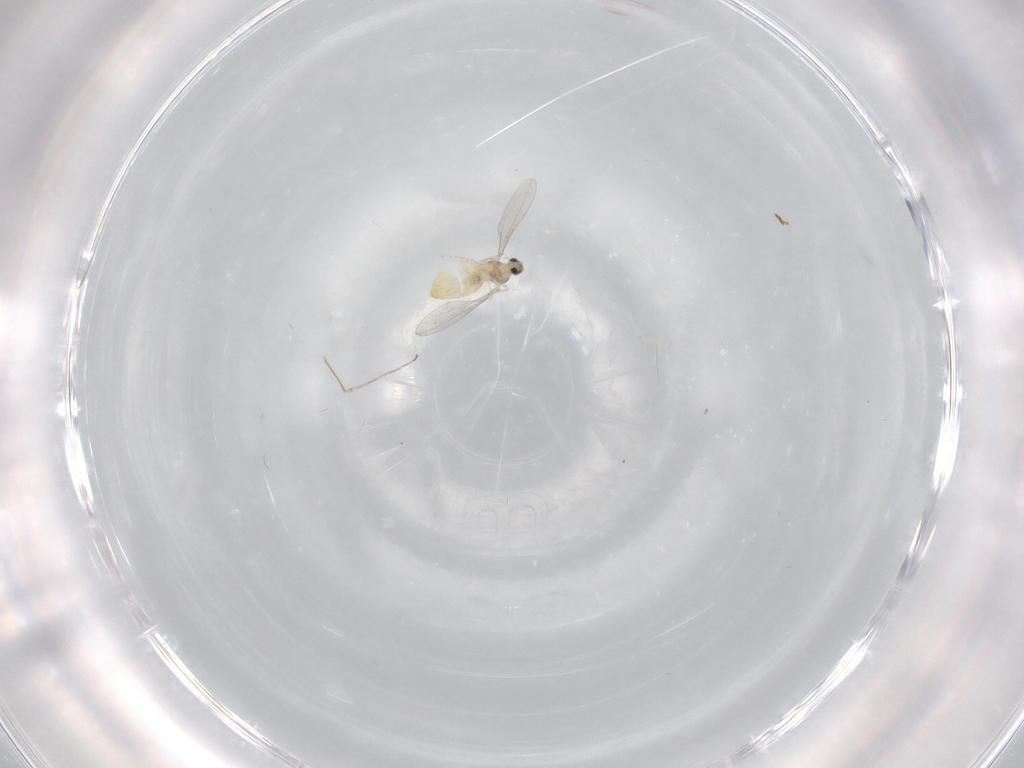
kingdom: Animalia
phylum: Arthropoda
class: Insecta
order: Diptera
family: Cecidomyiidae
